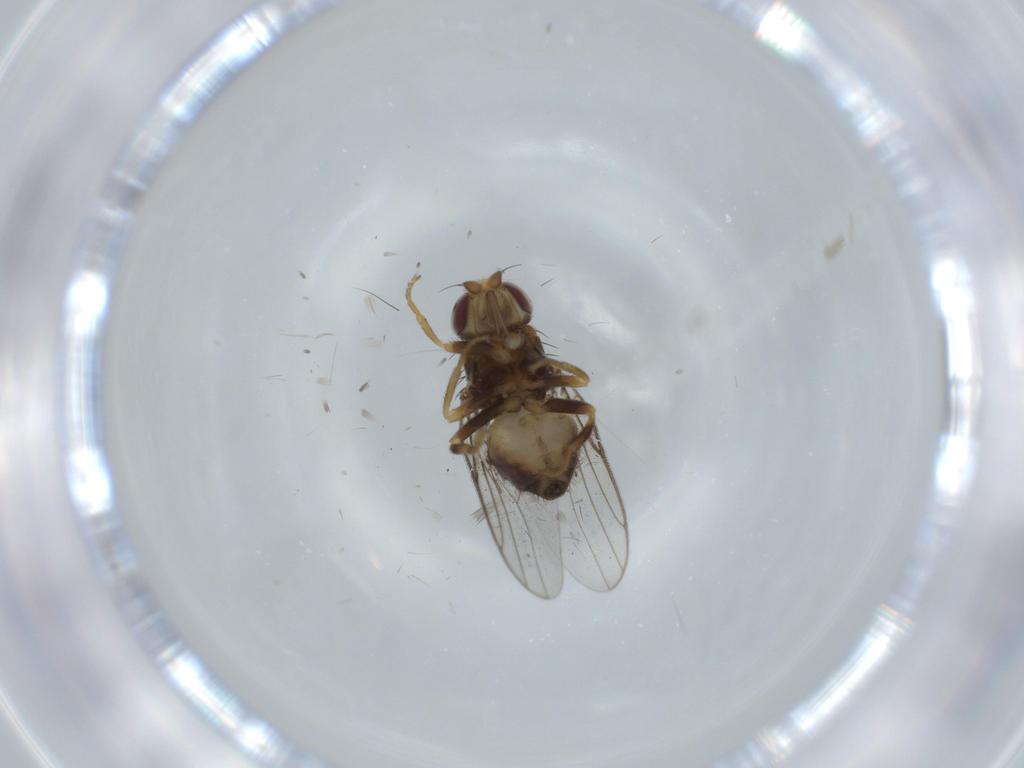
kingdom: Animalia
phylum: Arthropoda
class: Insecta
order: Diptera
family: Chloropidae
